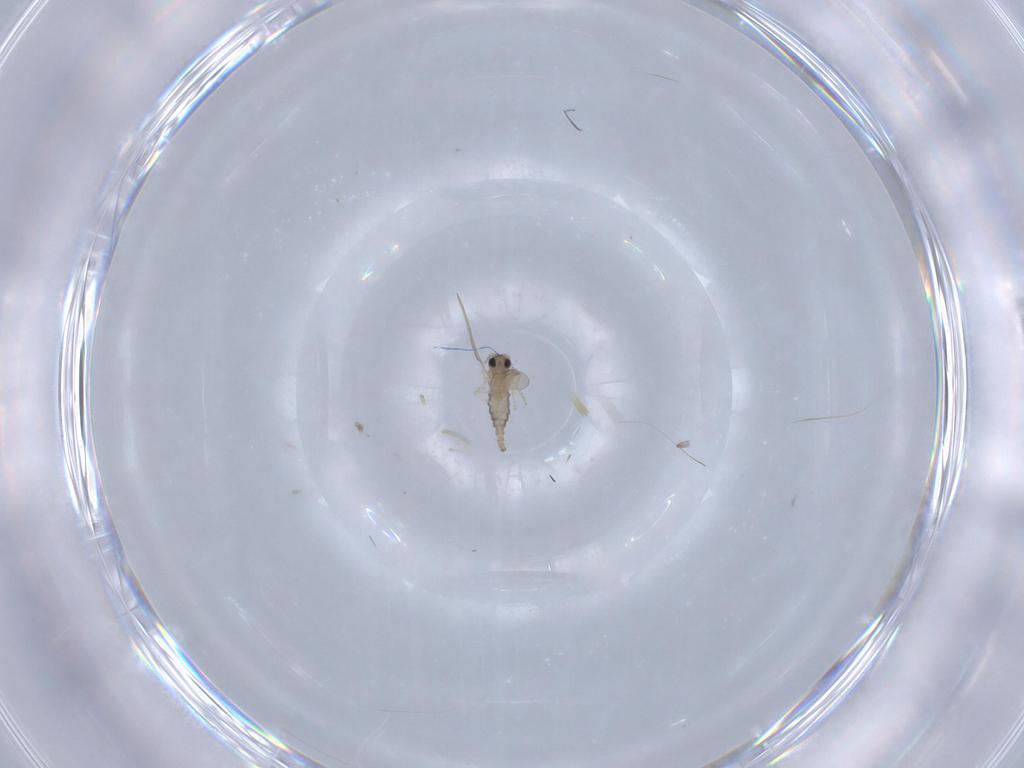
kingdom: Animalia
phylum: Arthropoda
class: Insecta
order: Diptera
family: Cecidomyiidae
